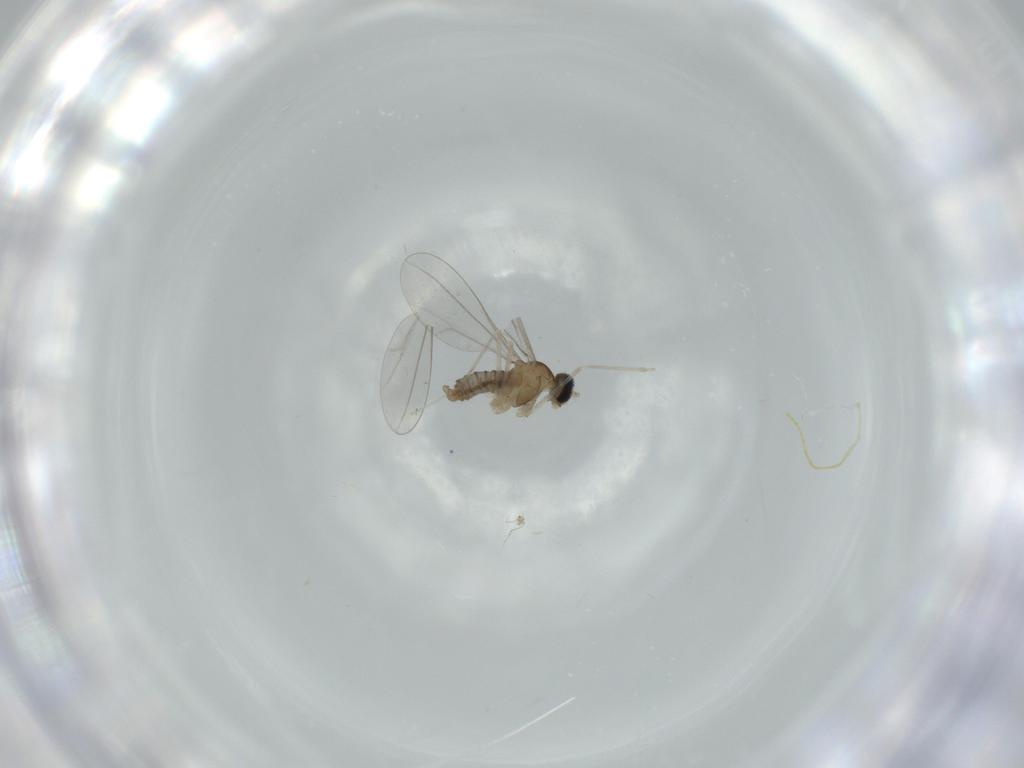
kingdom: Animalia
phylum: Arthropoda
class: Insecta
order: Diptera
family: Cecidomyiidae
